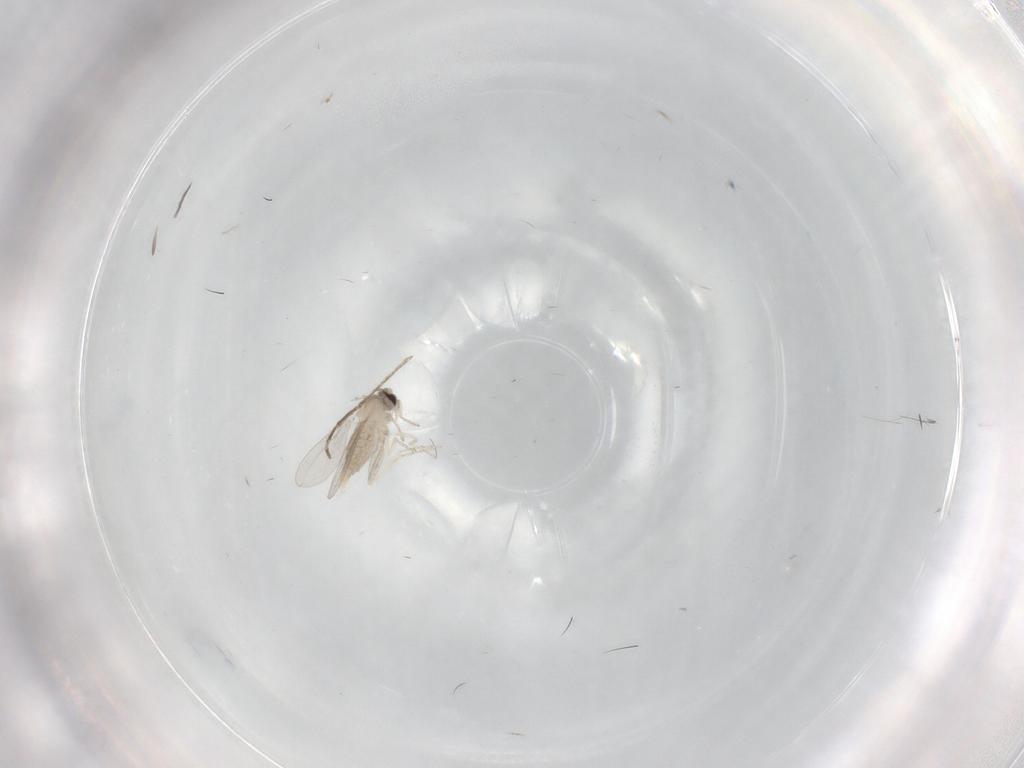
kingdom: Animalia
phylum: Arthropoda
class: Insecta
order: Diptera
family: Cecidomyiidae
